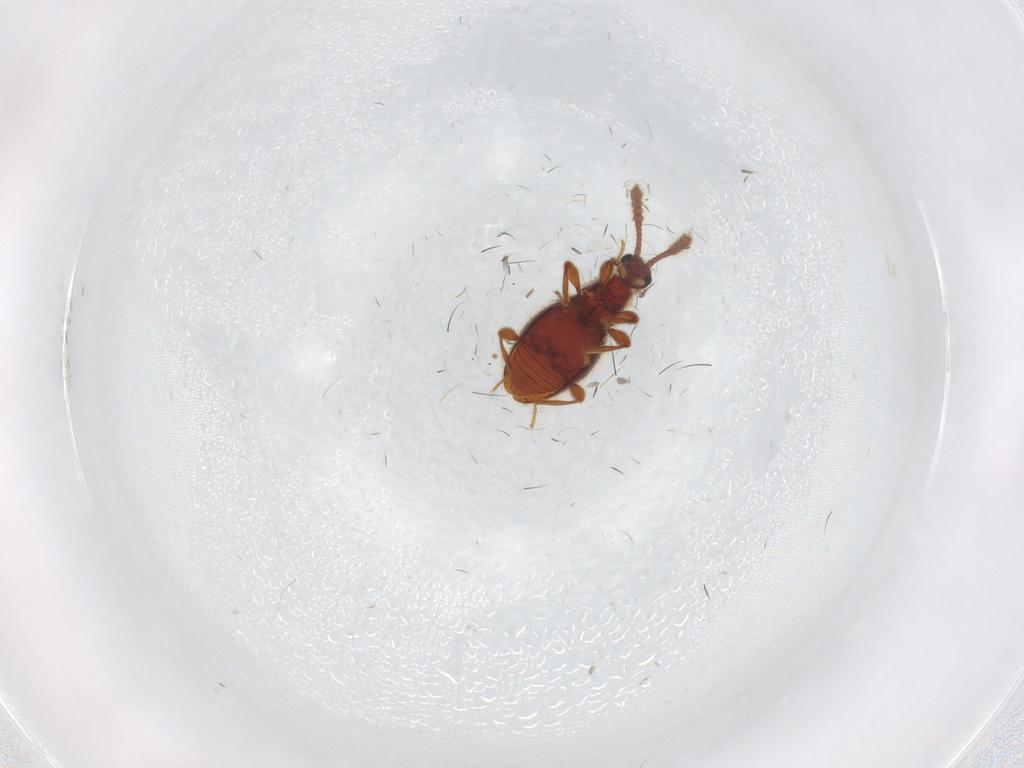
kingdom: Animalia
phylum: Arthropoda
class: Insecta
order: Coleoptera
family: Staphylinidae
